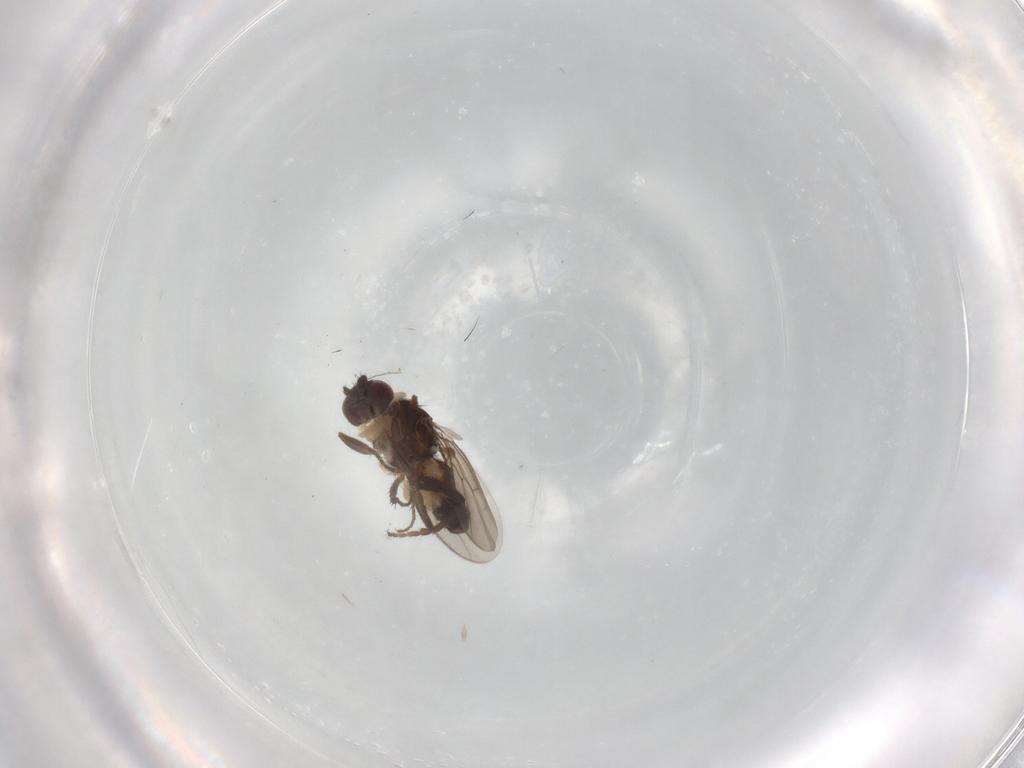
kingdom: Animalia
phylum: Arthropoda
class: Insecta
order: Diptera
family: Sphaeroceridae
